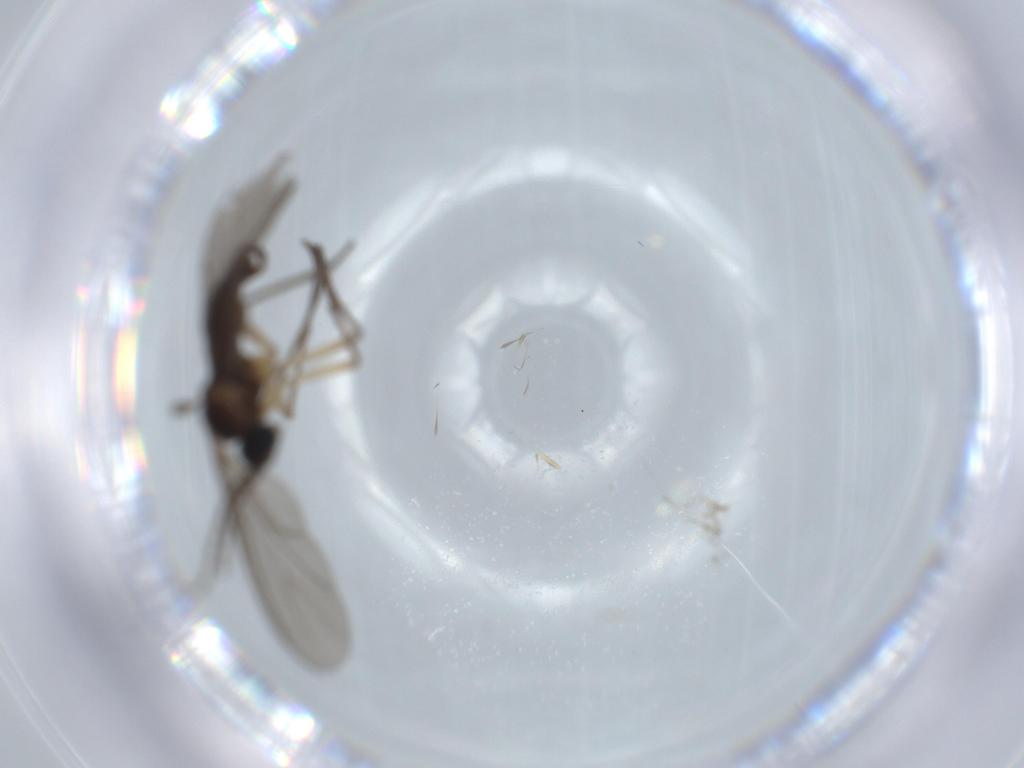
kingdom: Animalia
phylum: Arthropoda
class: Insecta
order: Diptera
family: Sciaridae
